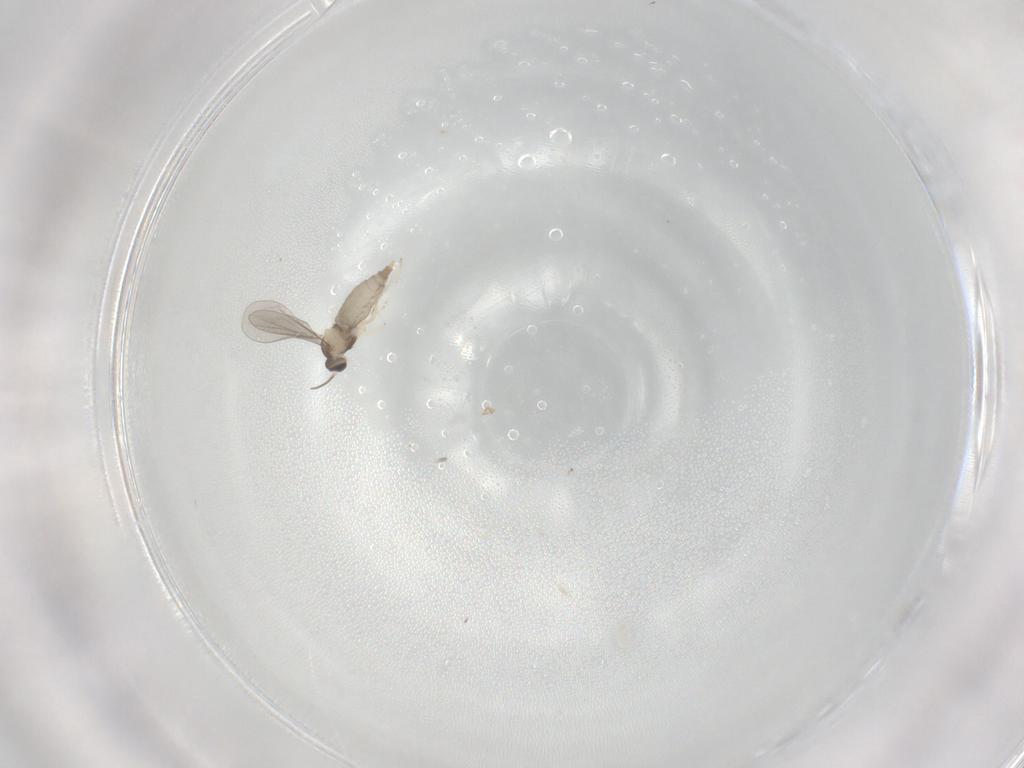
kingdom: Animalia
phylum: Arthropoda
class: Insecta
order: Diptera
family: Dolichopodidae
